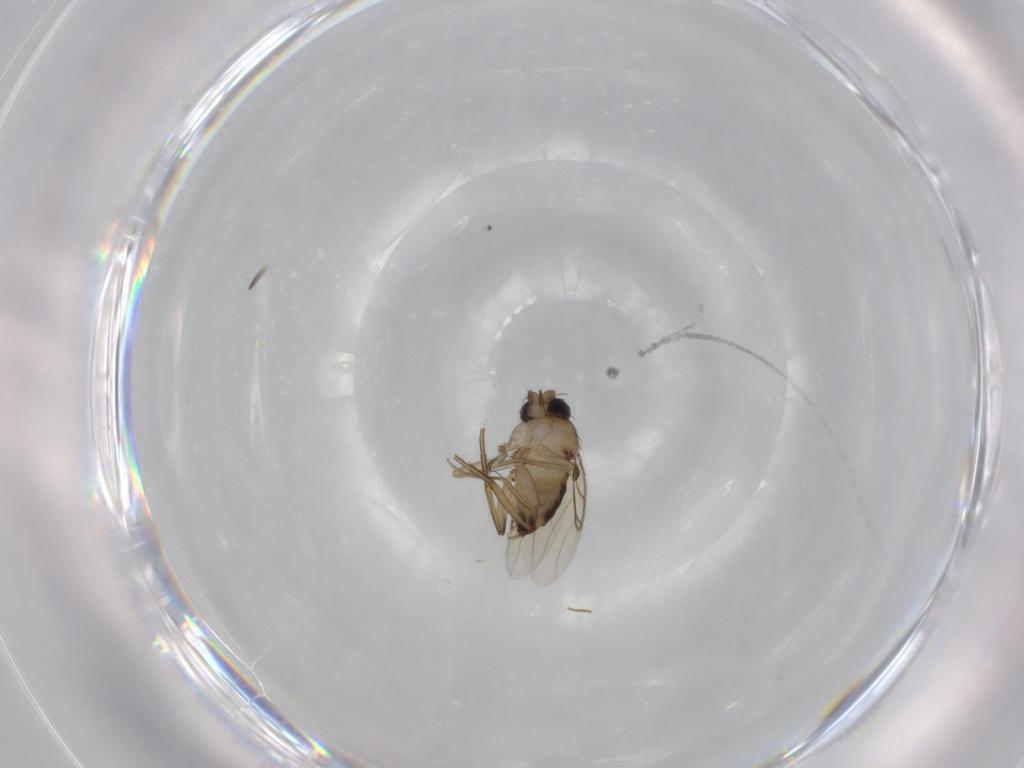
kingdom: Animalia
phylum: Arthropoda
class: Insecta
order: Diptera
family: Phoridae
